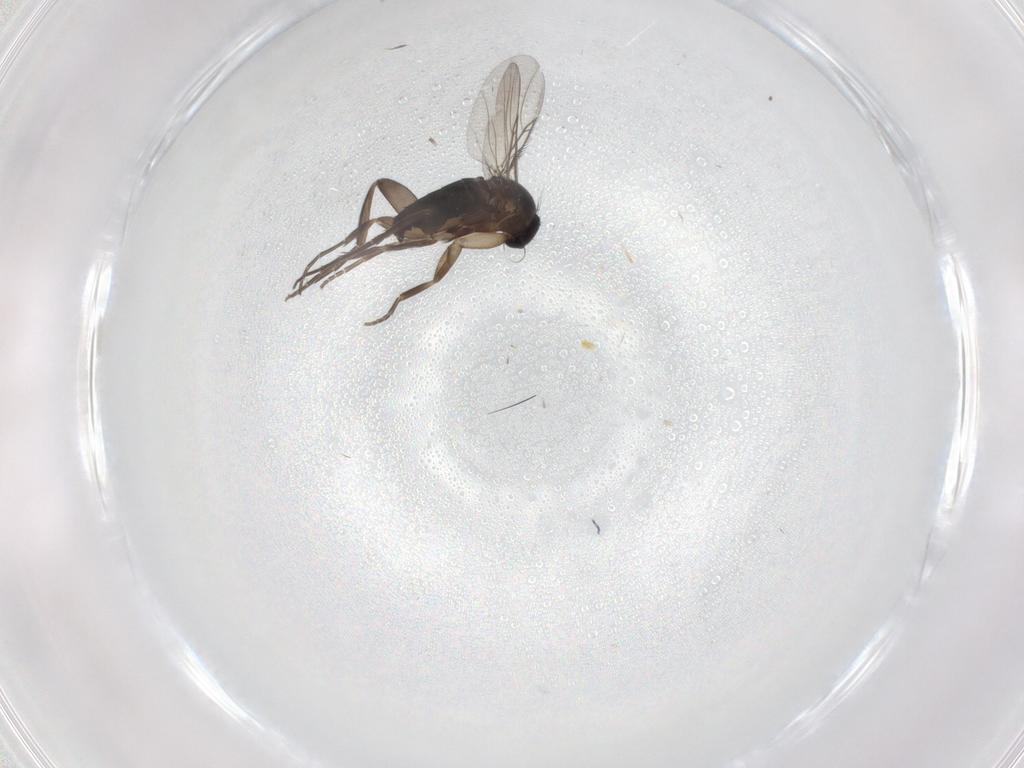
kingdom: Animalia
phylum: Arthropoda
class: Insecta
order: Diptera
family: Phoridae
